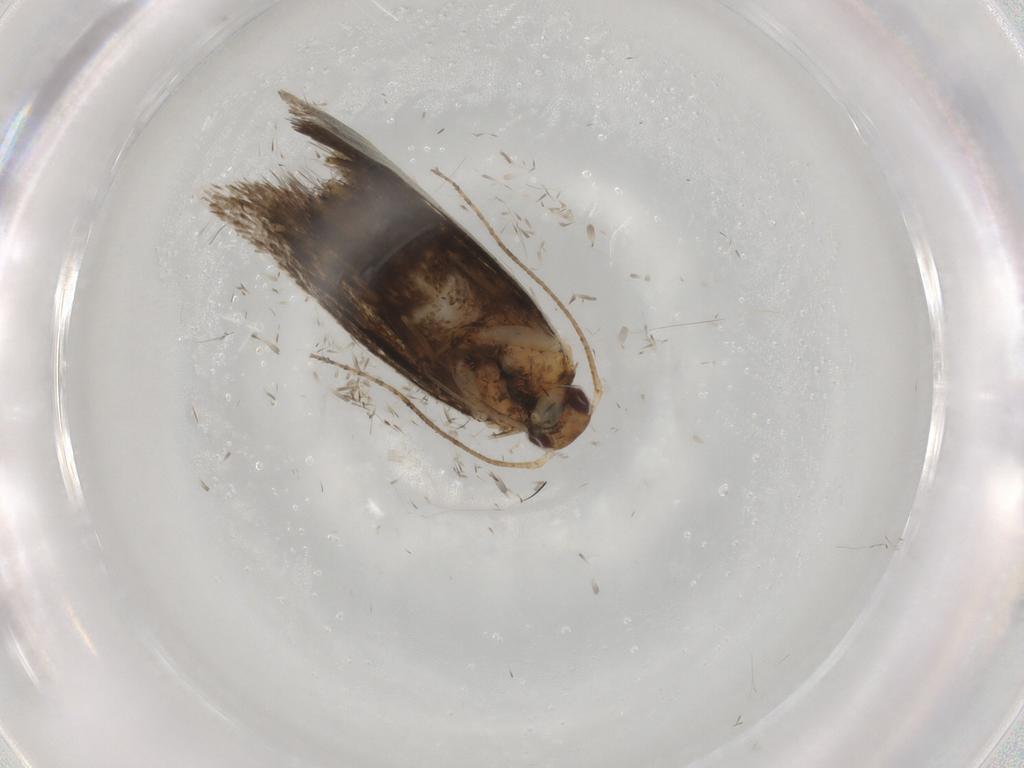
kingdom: Animalia
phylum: Arthropoda
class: Insecta
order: Lepidoptera
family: Oecophoridae
